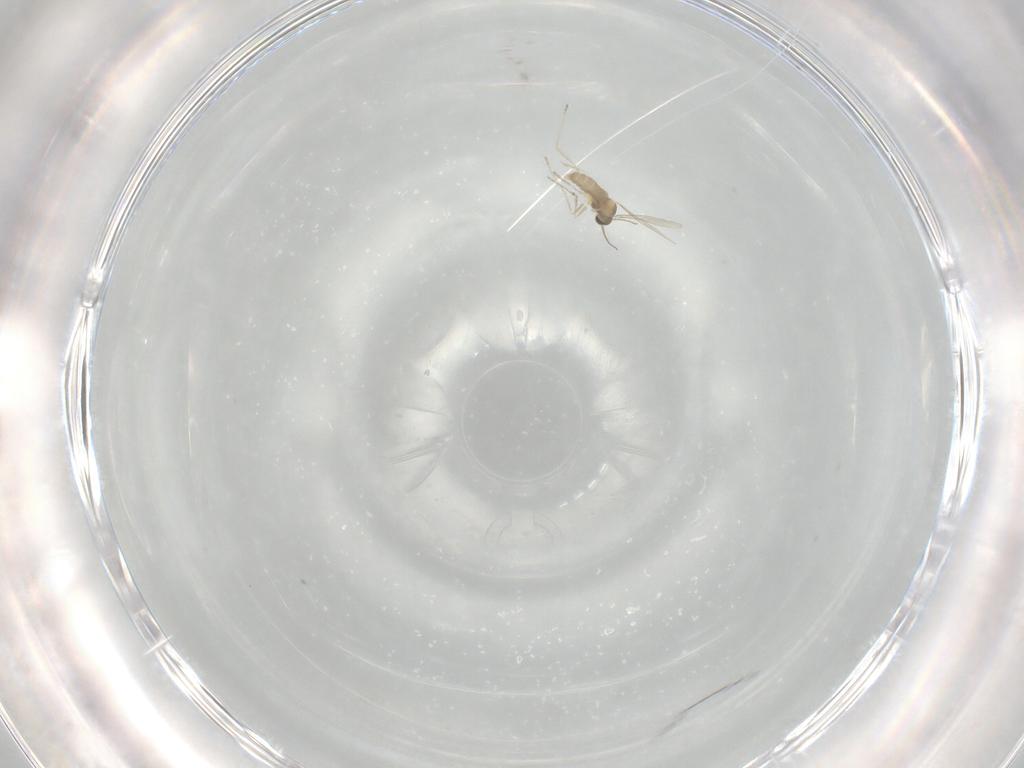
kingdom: Animalia
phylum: Arthropoda
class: Insecta
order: Diptera
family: Cecidomyiidae
